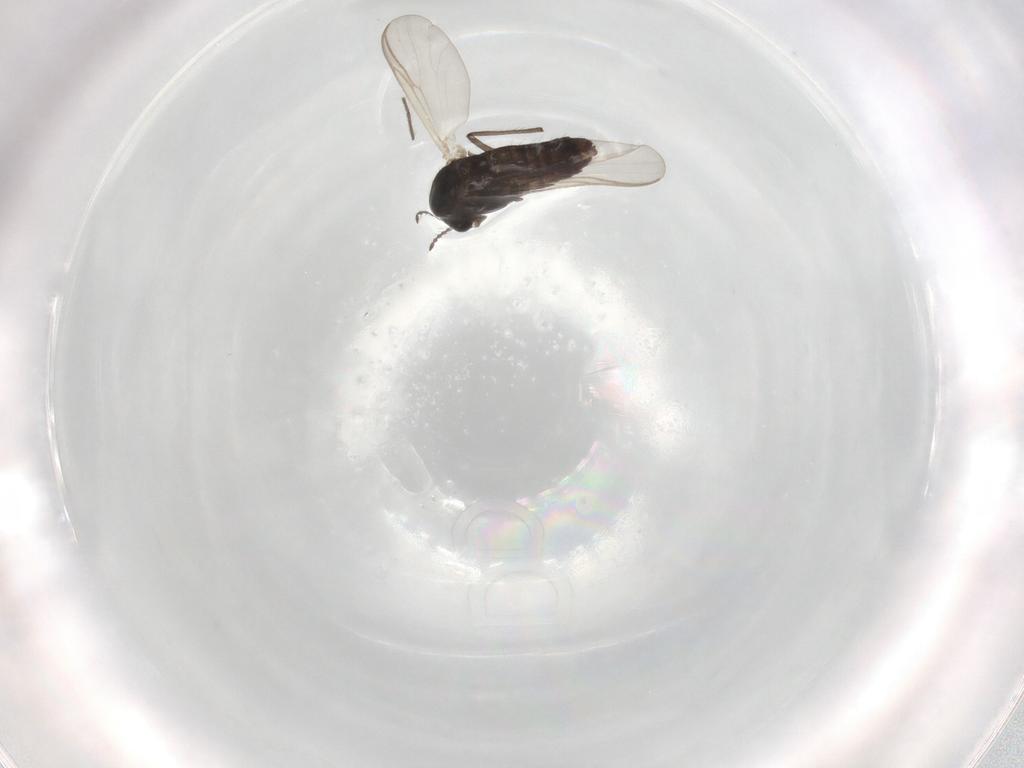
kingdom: Animalia
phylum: Arthropoda
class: Insecta
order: Diptera
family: Chironomidae
